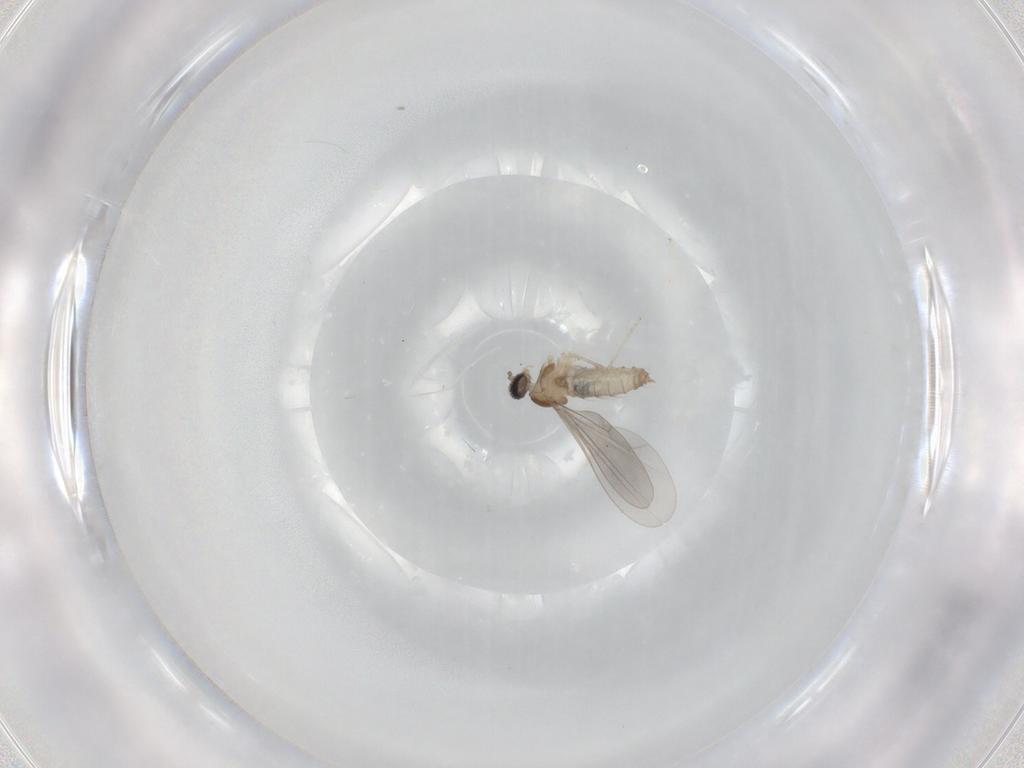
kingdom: Animalia
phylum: Arthropoda
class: Insecta
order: Diptera
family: Cecidomyiidae
